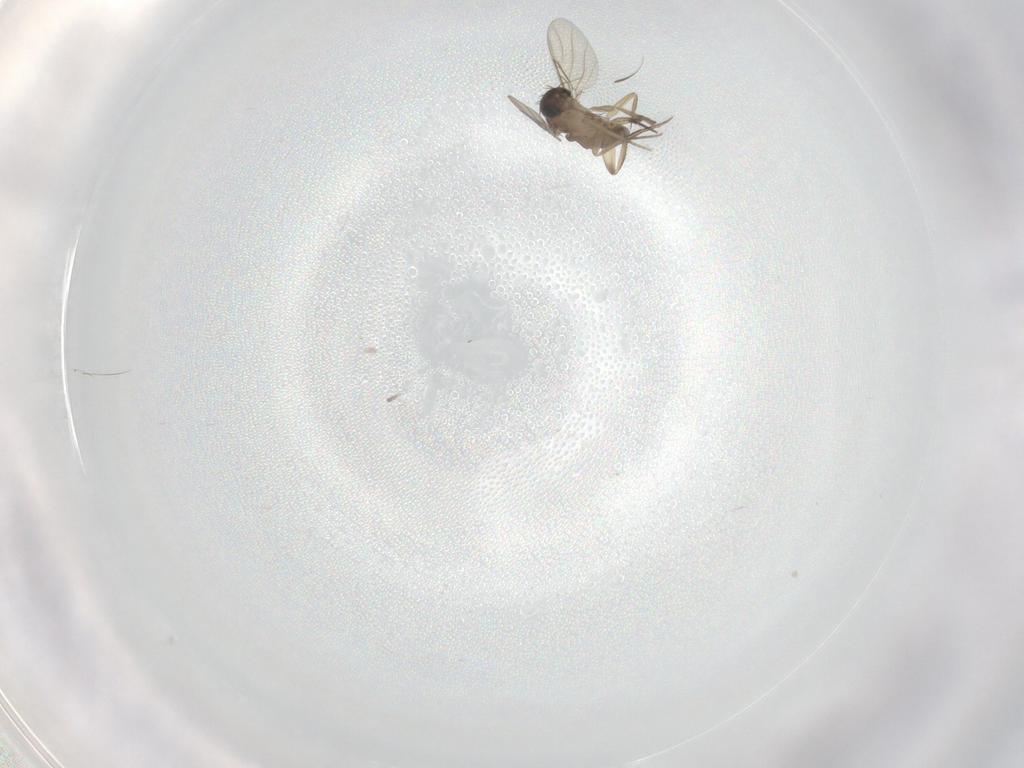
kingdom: Animalia
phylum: Arthropoda
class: Insecta
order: Diptera
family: Phoridae
